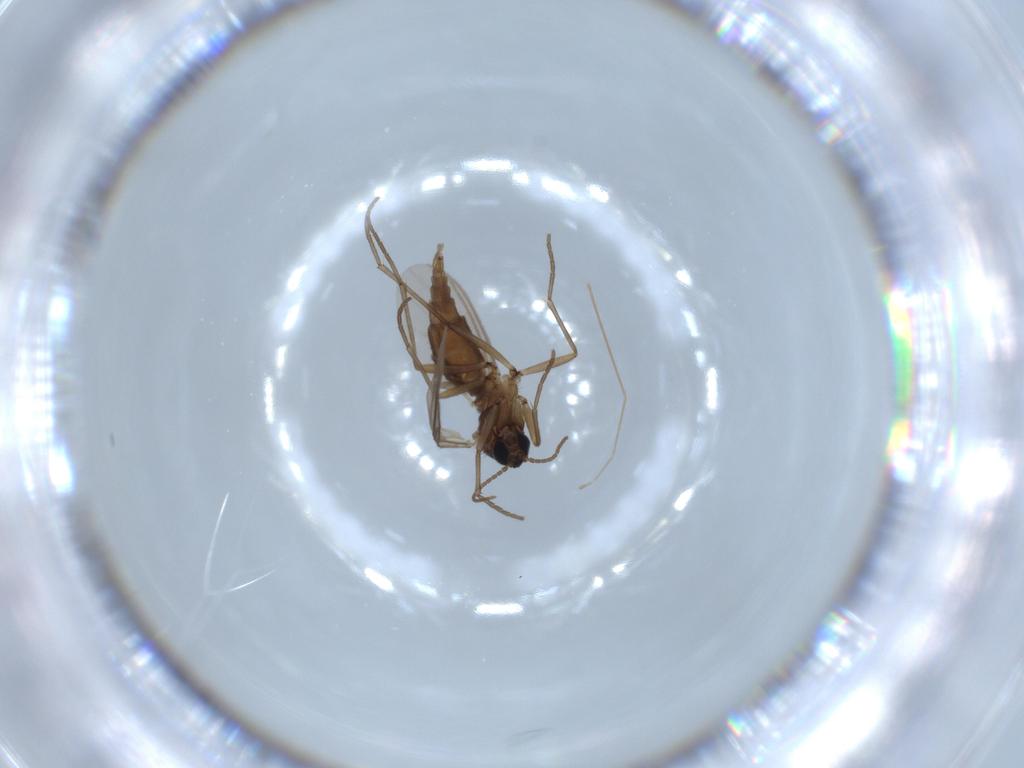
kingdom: Animalia
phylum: Arthropoda
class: Insecta
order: Diptera
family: Sciaridae
